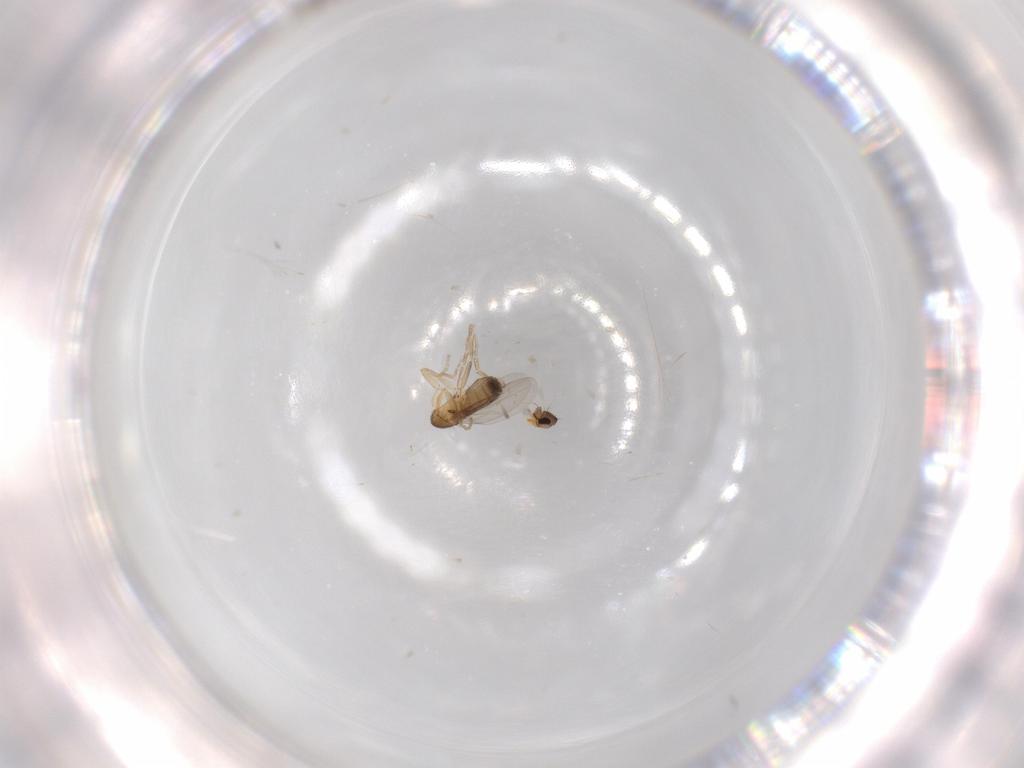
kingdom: Animalia
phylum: Arthropoda
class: Insecta
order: Diptera
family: Phoridae
